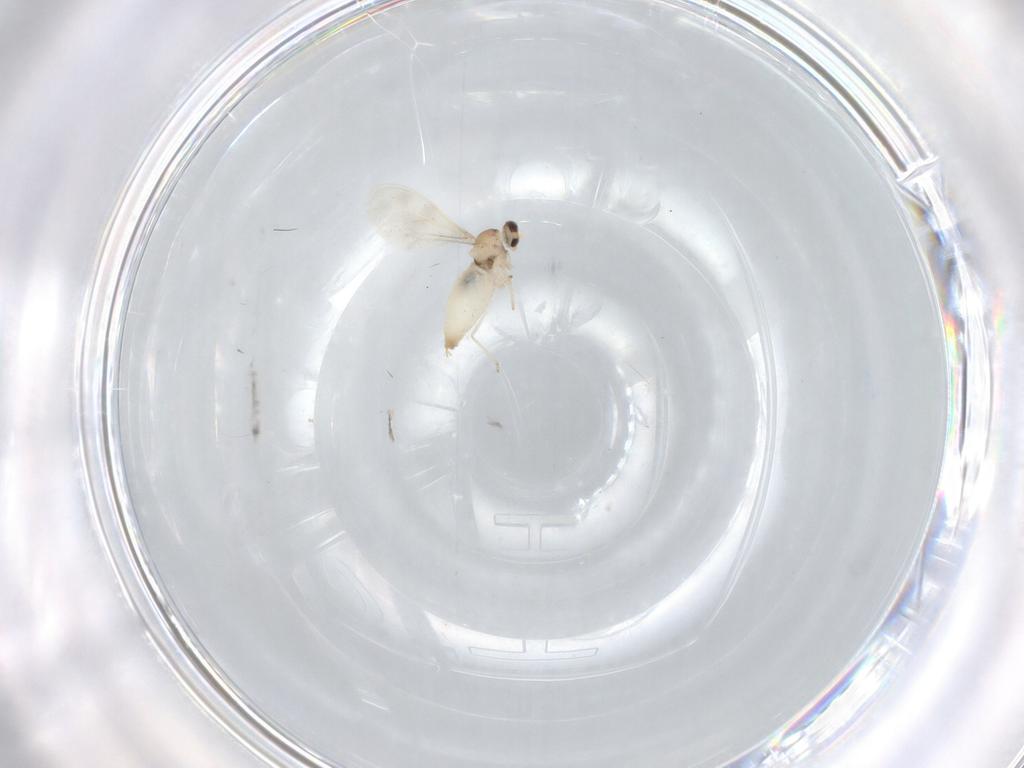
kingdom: Animalia
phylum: Arthropoda
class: Insecta
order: Diptera
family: Cecidomyiidae
